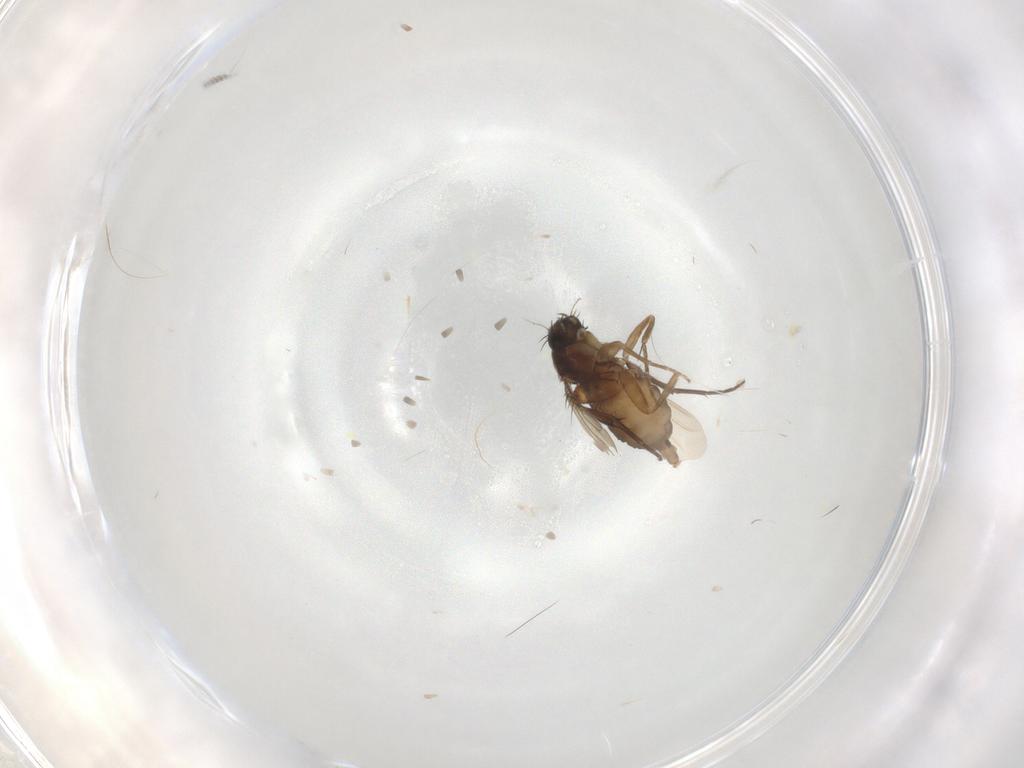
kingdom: Animalia
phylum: Arthropoda
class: Insecta
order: Diptera
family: Phoridae
